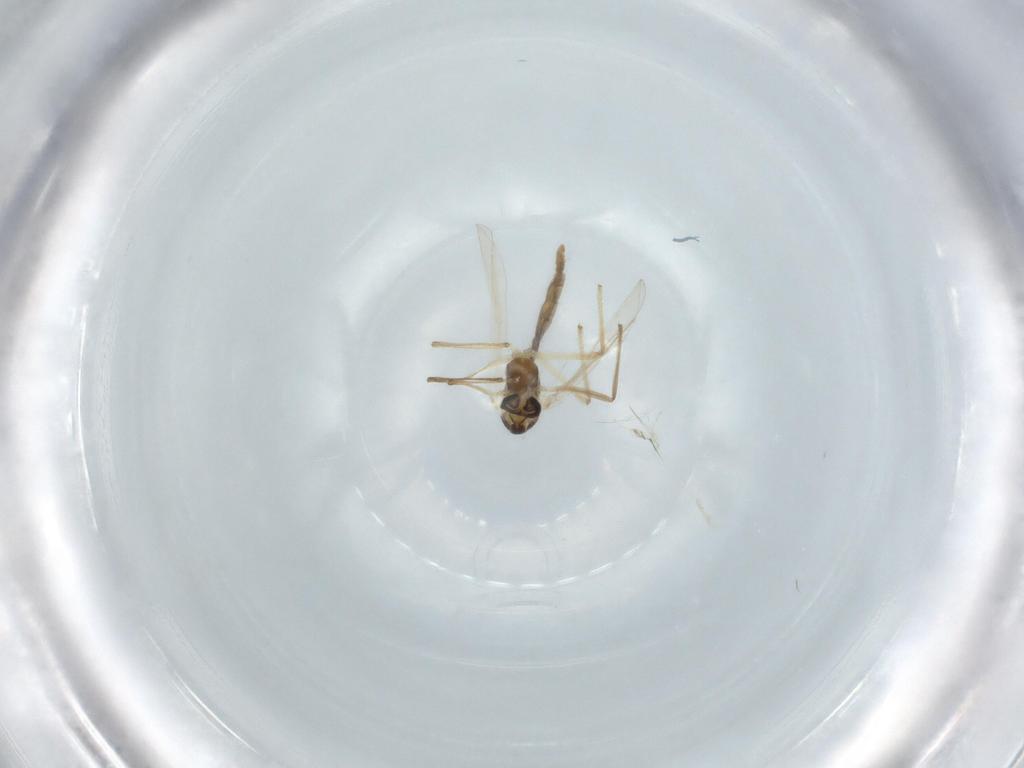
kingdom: Animalia
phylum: Arthropoda
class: Insecta
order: Diptera
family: Chironomidae
